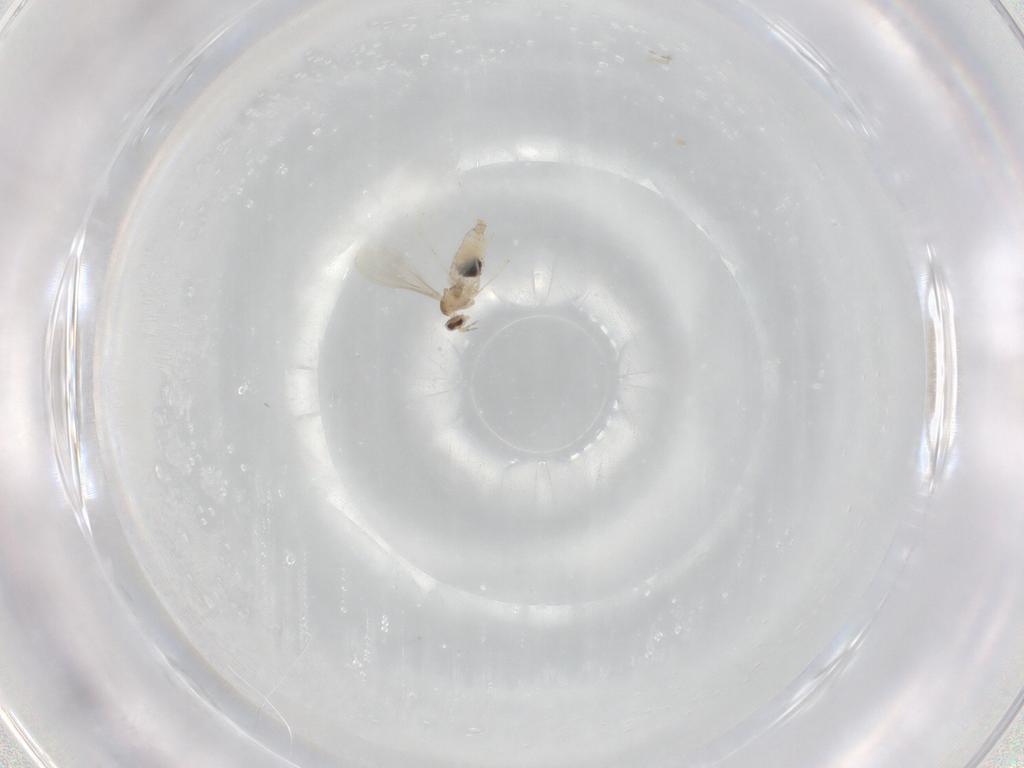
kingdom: Animalia
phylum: Arthropoda
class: Insecta
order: Diptera
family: Cecidomyiidae
